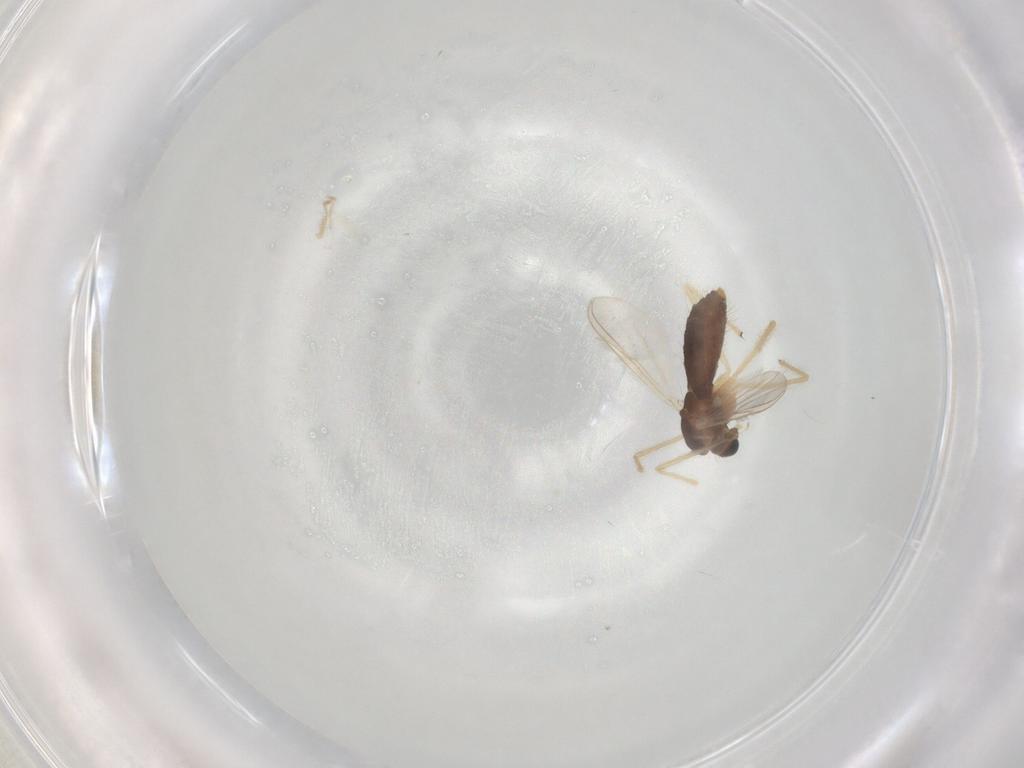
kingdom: Animalia
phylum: Arthropoda
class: Insecta
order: Diptera
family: Chironomidae
